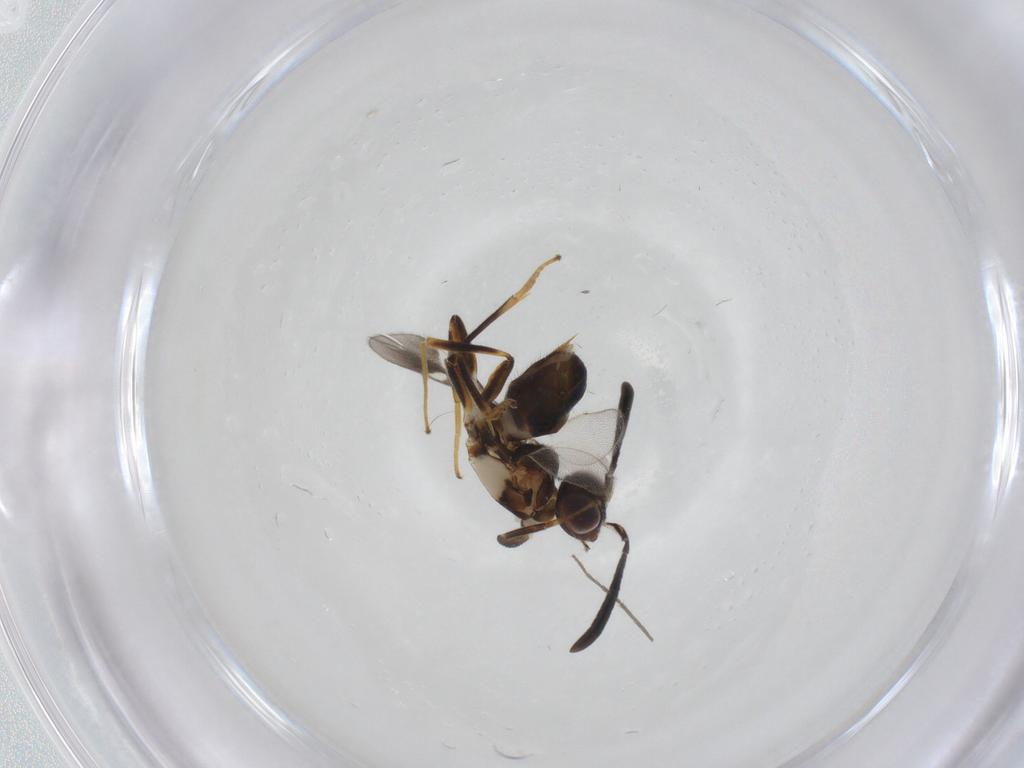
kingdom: Animalia
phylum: Arthropoda
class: Insecta
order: Hymenoptera
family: Eupelmidae
